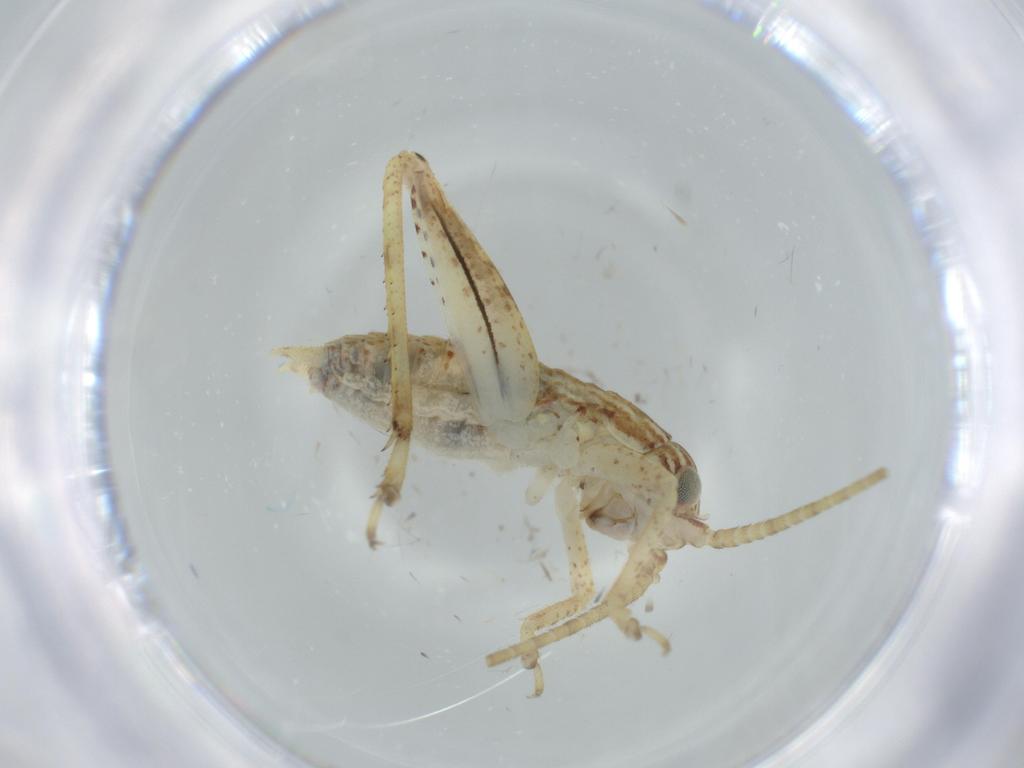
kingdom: Animalia
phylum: Arthropoda
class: Insecta
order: Orthoptera
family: Gryllidae
